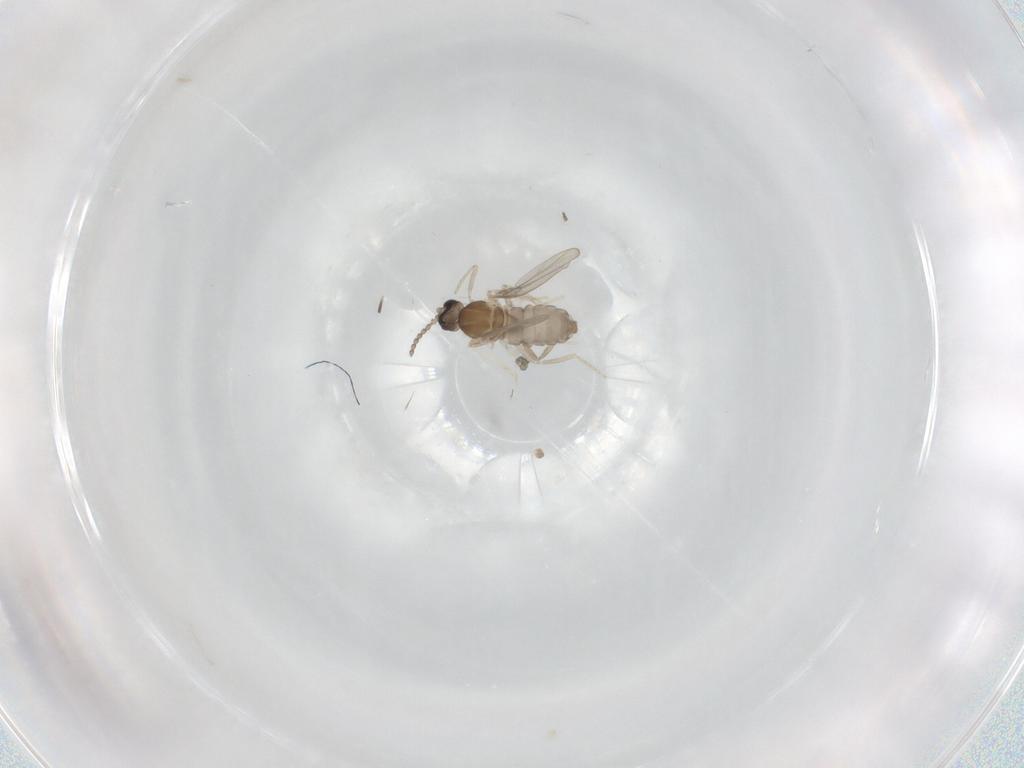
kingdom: Animalia
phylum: Arthropoda
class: Insecta
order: Diptera
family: Cecidomyiidae
